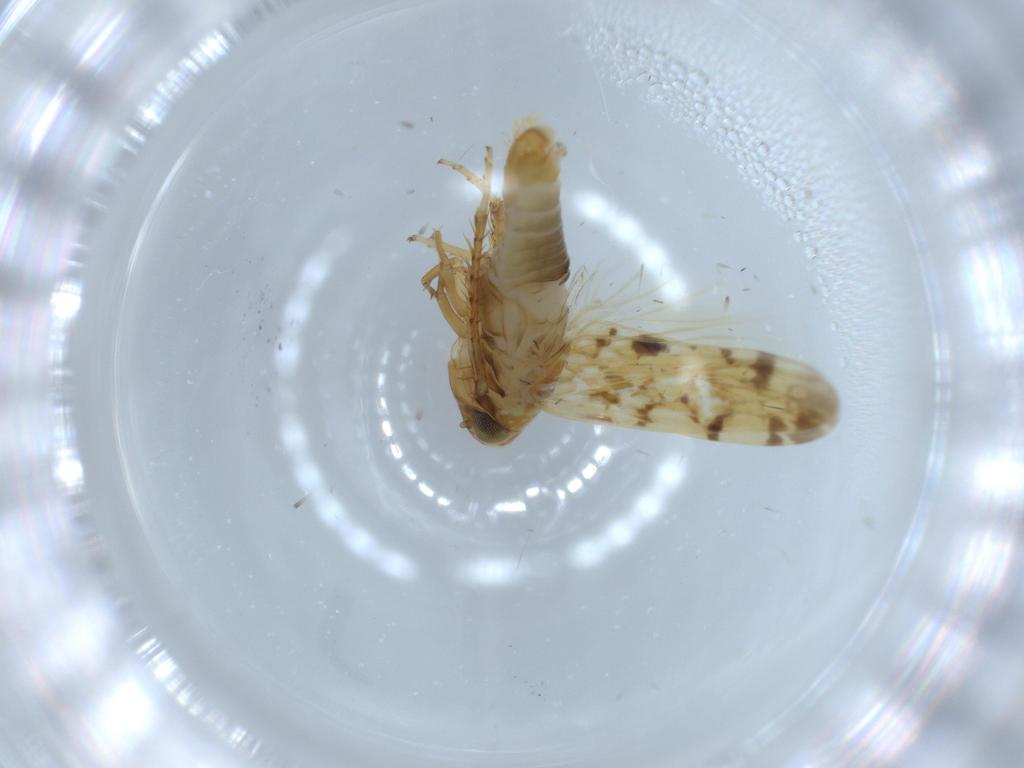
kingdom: Animalia
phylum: Arthropoda
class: Insecta
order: Hemiptera
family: Cicadellidae
